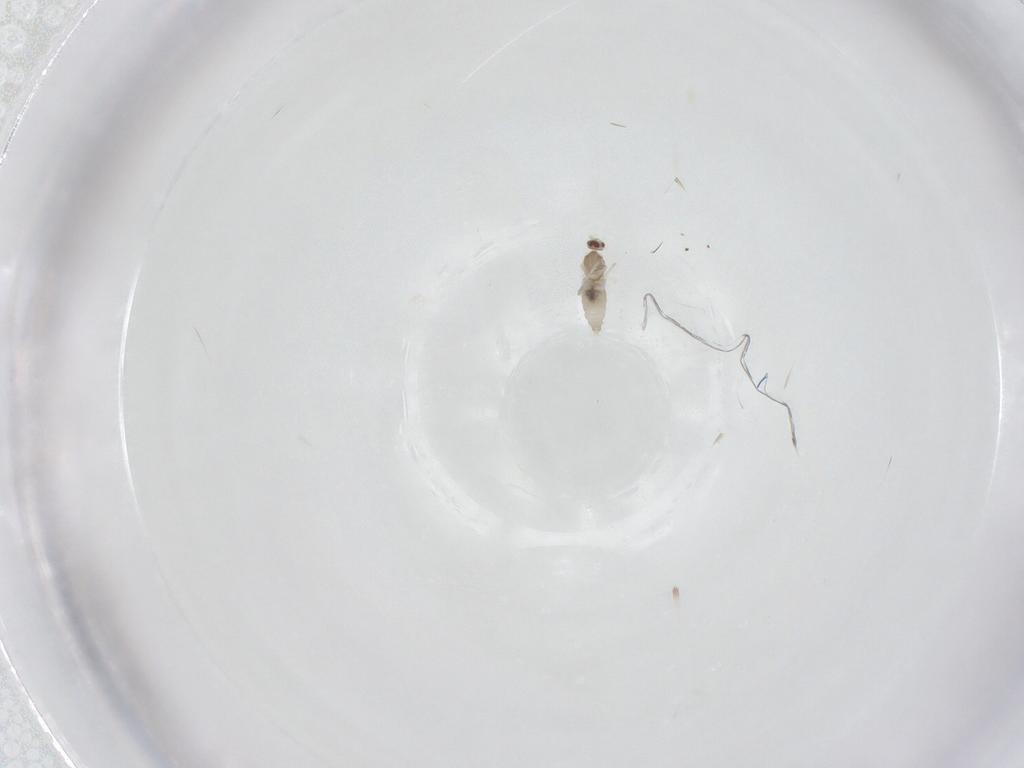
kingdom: Animalia
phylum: Arthropoda
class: Insecta
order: Diptera
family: Cecidomyiidae
